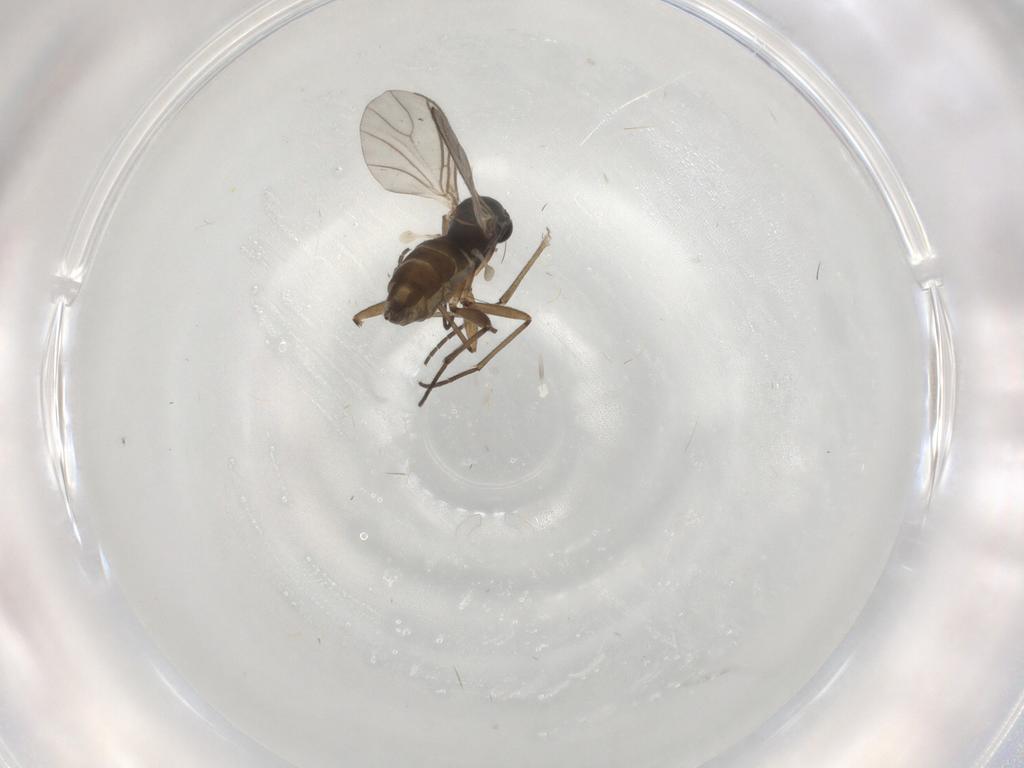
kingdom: Animalia
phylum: Arthropoda
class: Insecta
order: Diptera
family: Sciaridae
